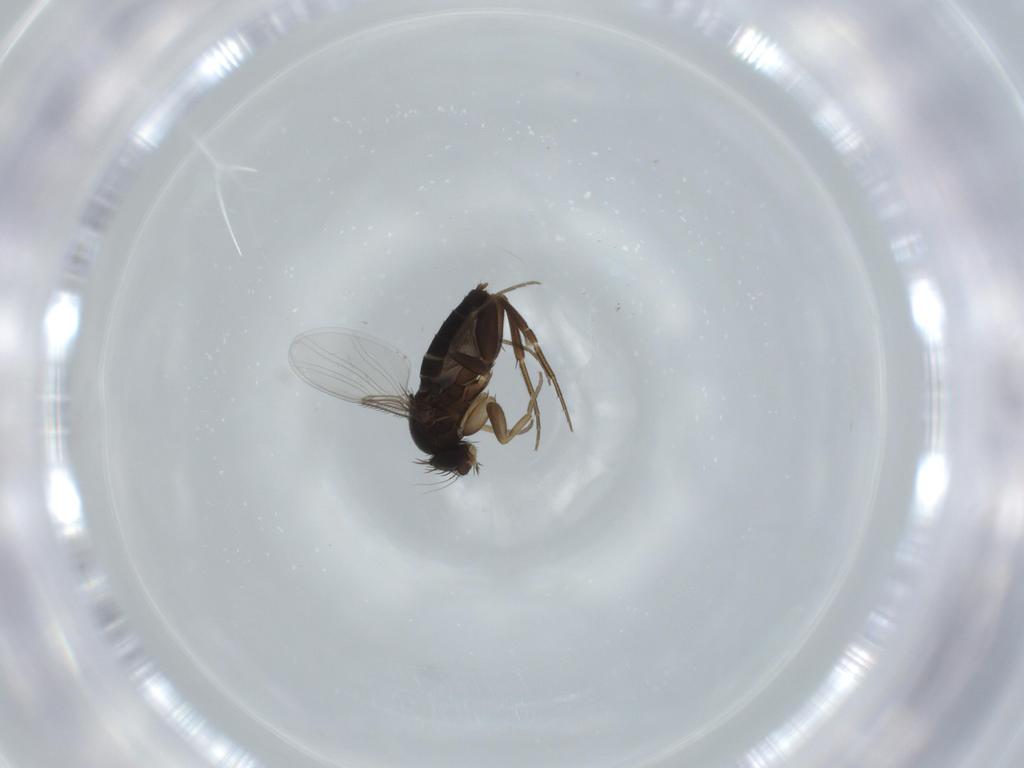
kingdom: Animalia
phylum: Arthropoda
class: Insecta
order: Diptera
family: Phoridae
